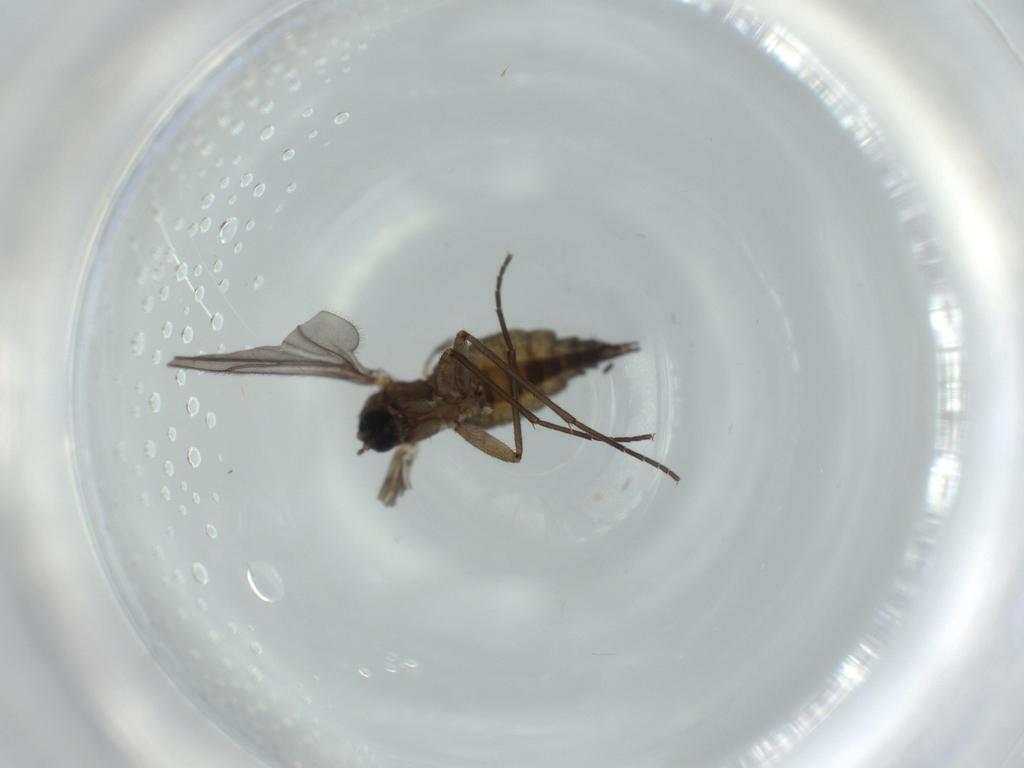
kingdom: Animalia
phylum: Arthropoda
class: Insecta
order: Diptera
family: Sciaridae
